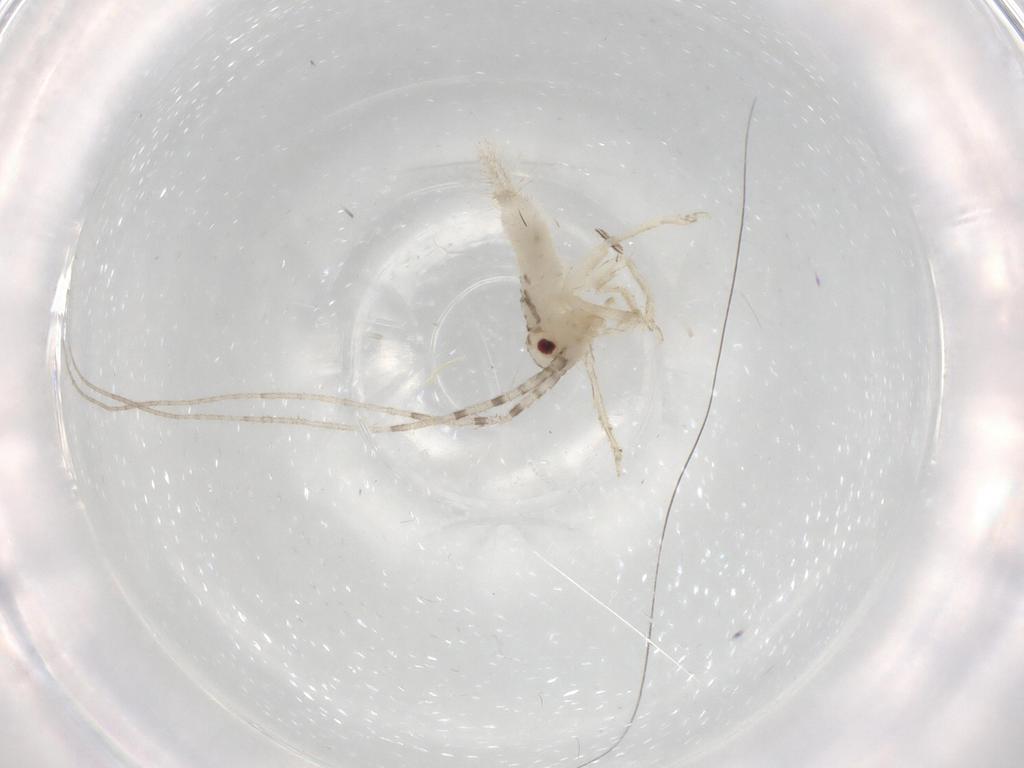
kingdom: Animalia
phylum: Arthropoda
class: Insecta
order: Orthoptera
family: Trigonidiidae
